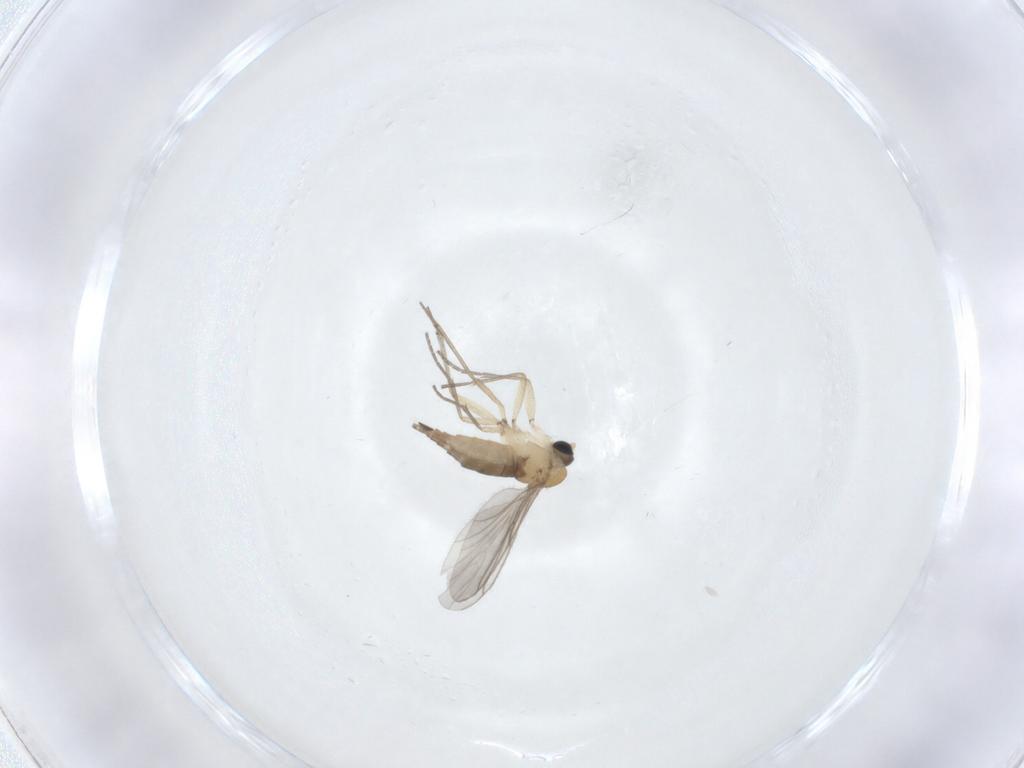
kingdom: Animalia
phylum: Arthropoda
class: Insecta
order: Diptera
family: Sciaridae
